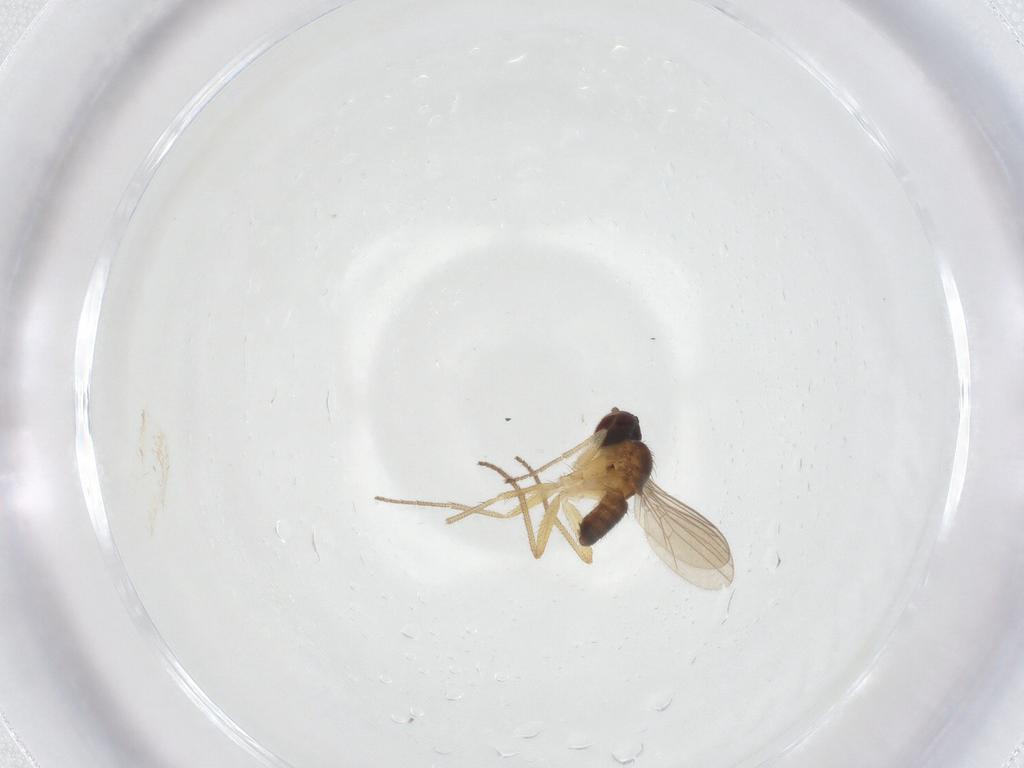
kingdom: Animalia
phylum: Arthropoda
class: Insecta
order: Diptera
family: Dolichopodidae
